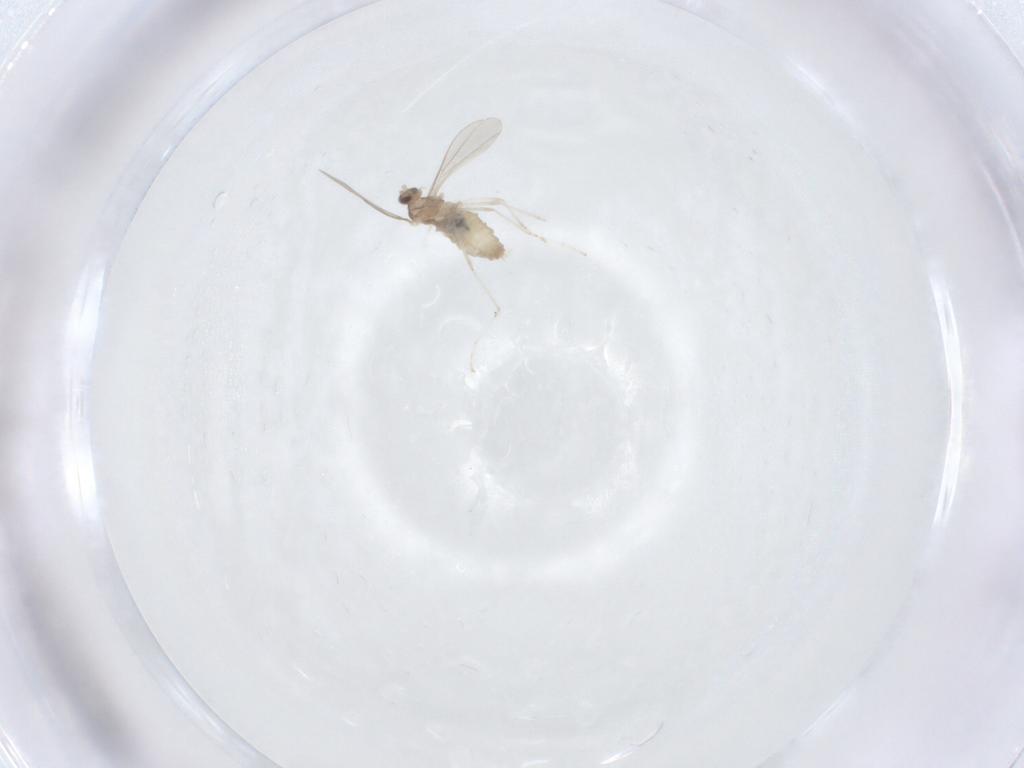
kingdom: Animalia
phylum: Arthropoda
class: Insecta
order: Diptera
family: Cecidomyiidae
